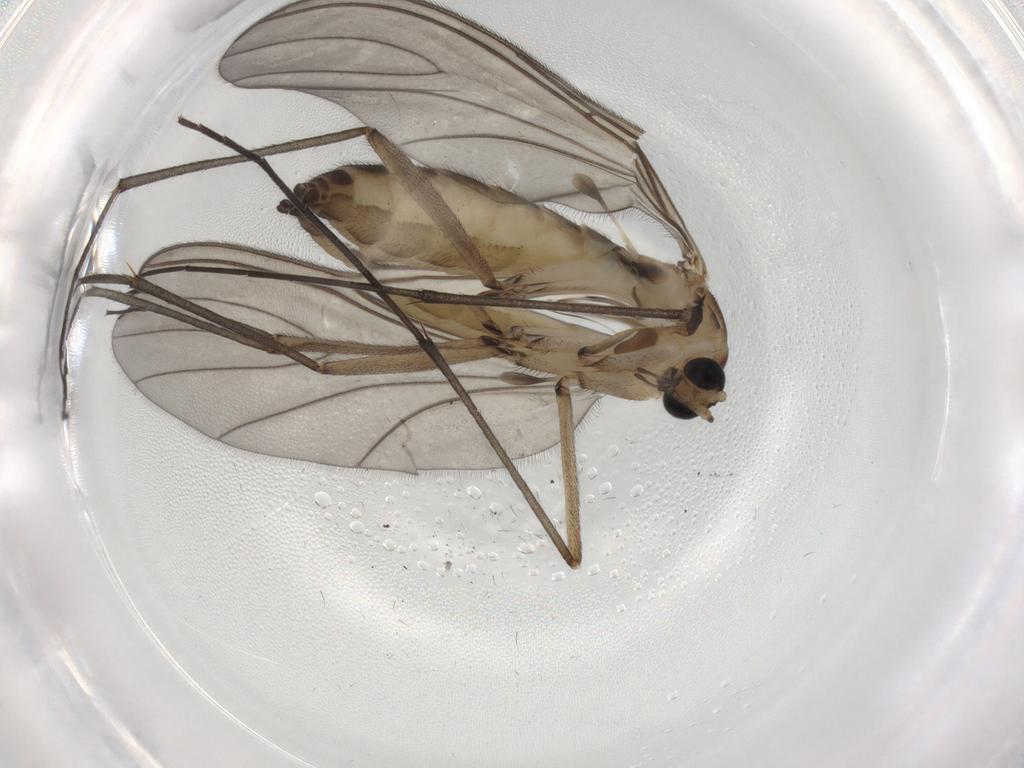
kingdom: Animalia
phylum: Arthropoda
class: Insecta
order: Diptera
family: Sciaridae
